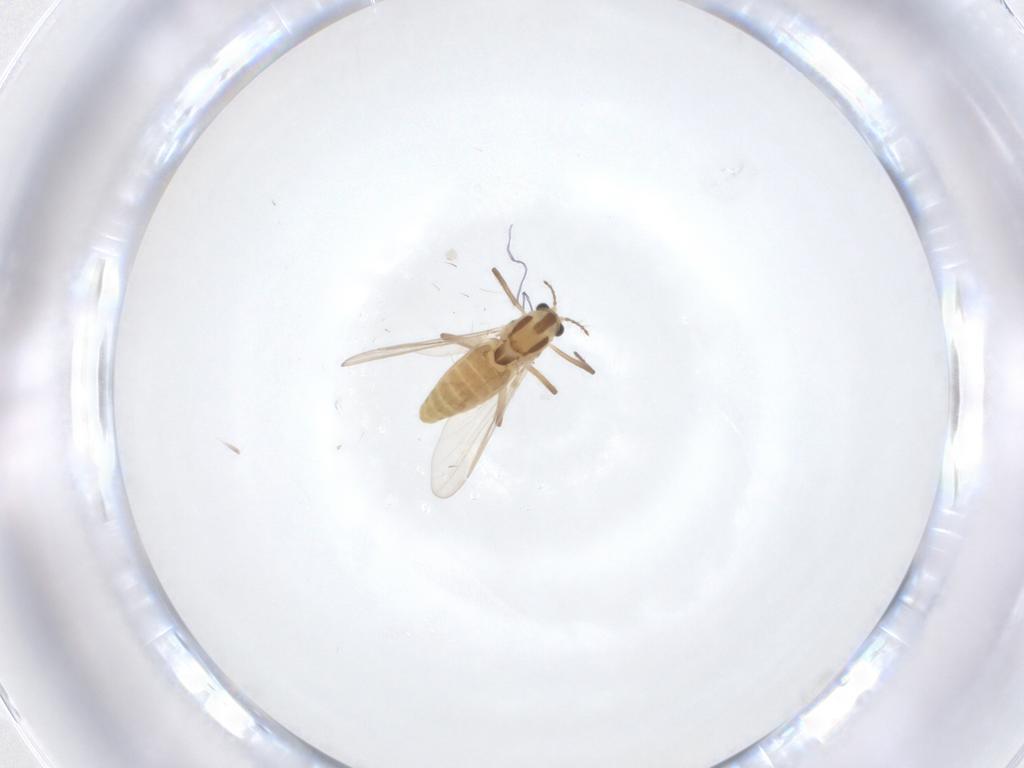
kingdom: Animalia
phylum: Arthropoda
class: Insecta
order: Diptera
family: Chironomidae
